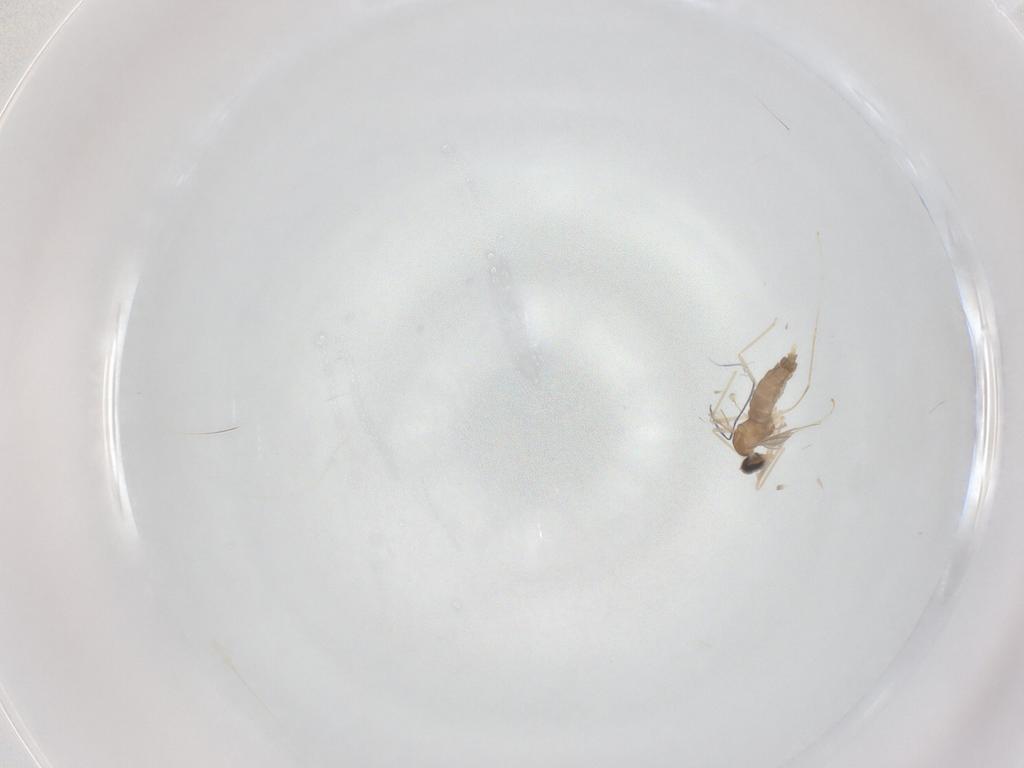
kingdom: Animalia
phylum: Arthropoda
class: Insecta
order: Diptera
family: Cecidomyiidae
